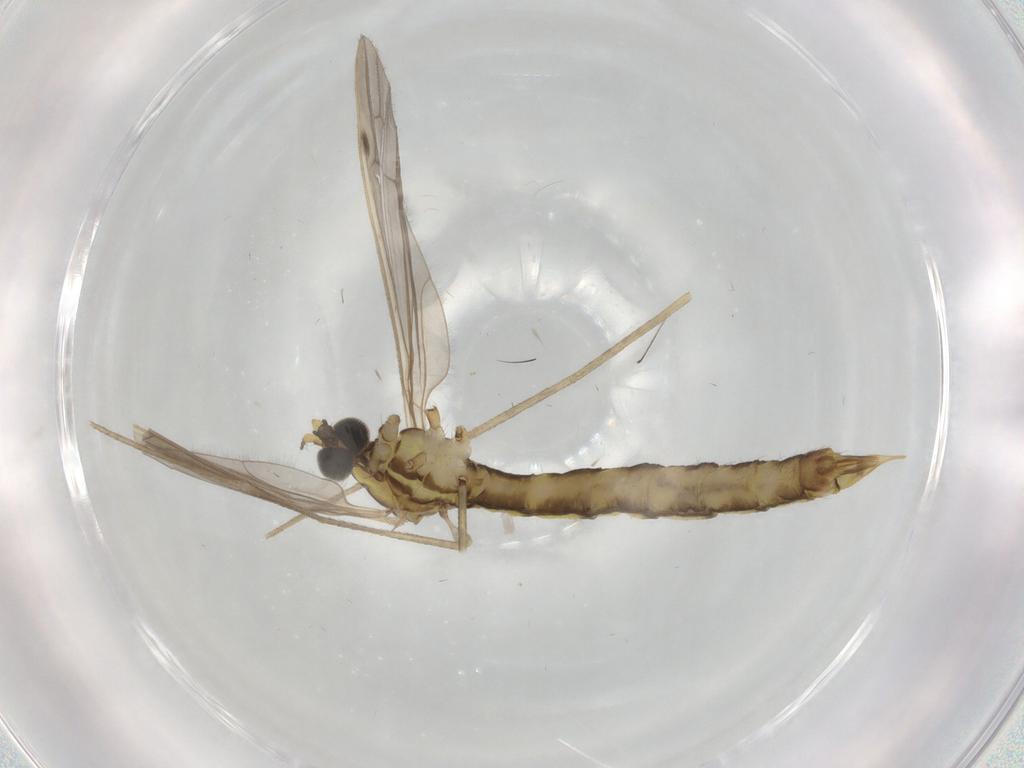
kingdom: Animalia
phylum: Arthropoda
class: Insecta
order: Diptera
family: Limoniidae
